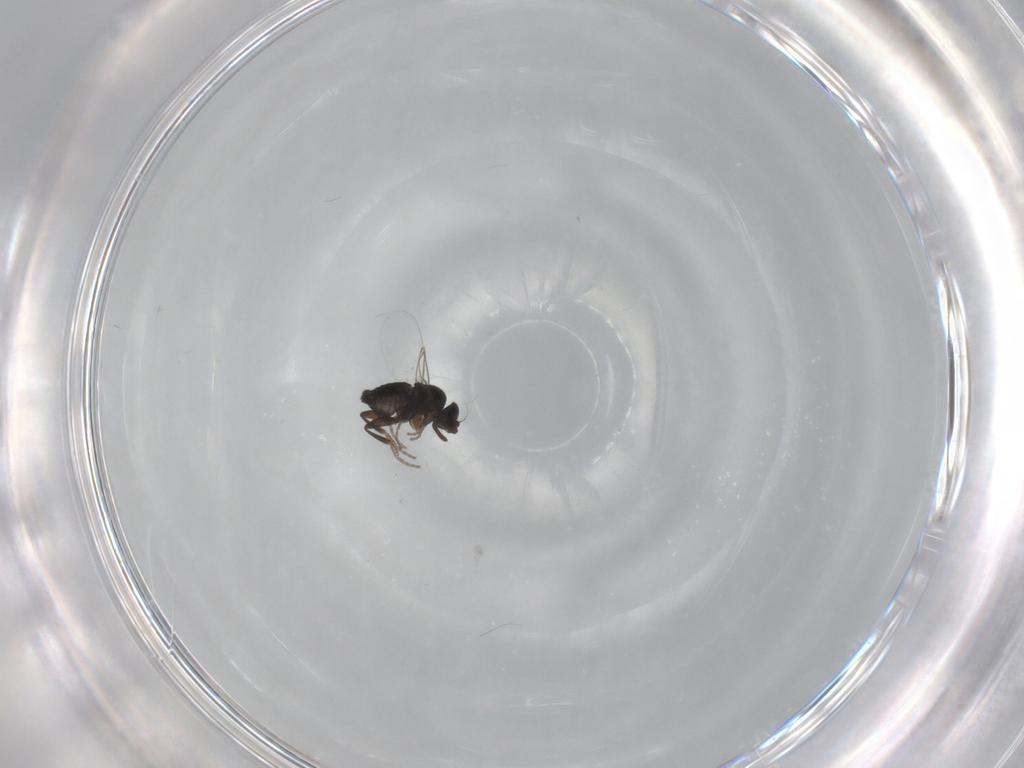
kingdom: Animalia
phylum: Arthropoda
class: Insecta
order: Diptera
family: Phoridae
